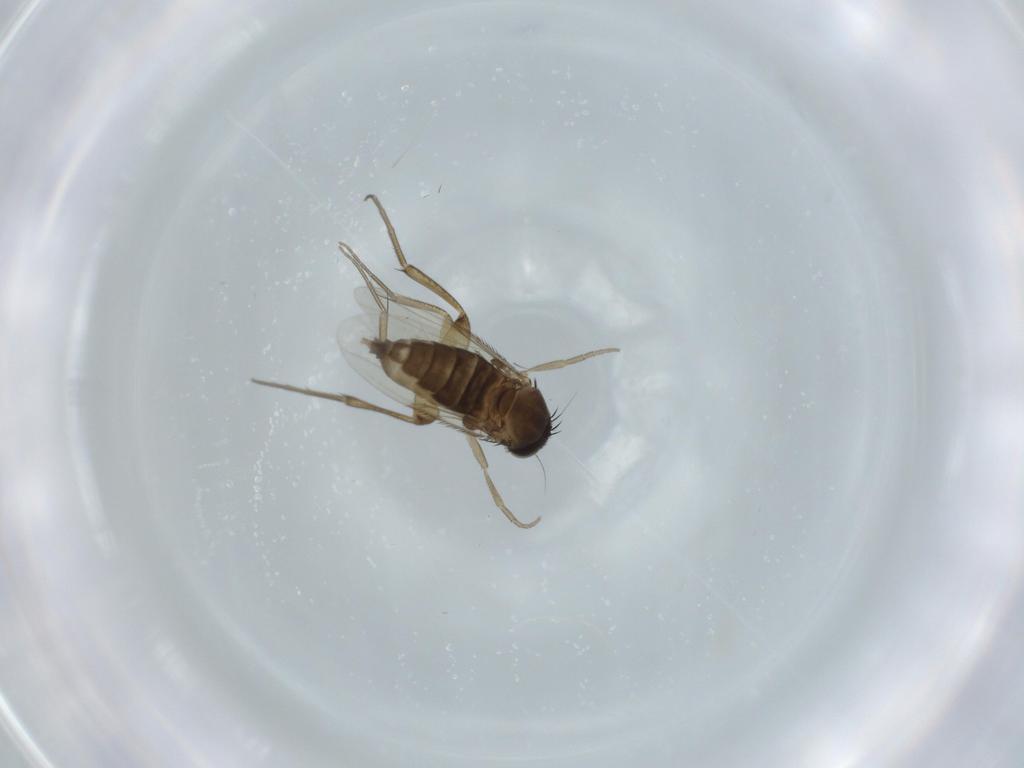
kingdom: Animalia
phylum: Arthropoda
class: Insecta
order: Diptera
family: Phoridae
